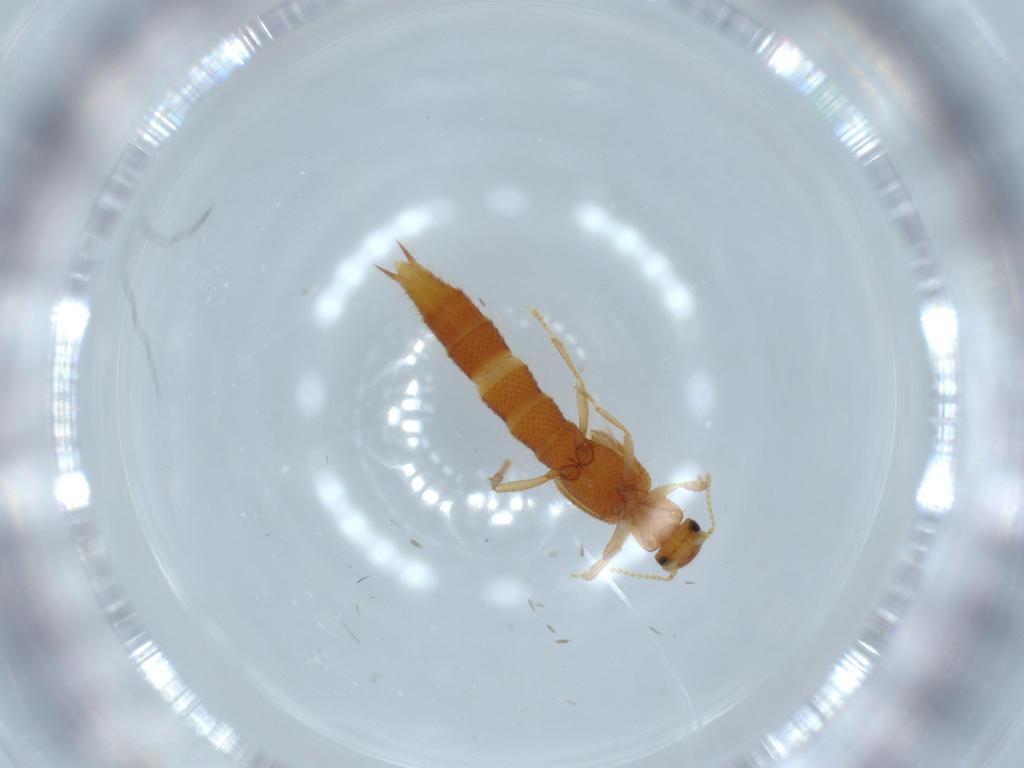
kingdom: Animalia
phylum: Arthropoda
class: Insecta
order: Coleoptera
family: Staphylinidae
